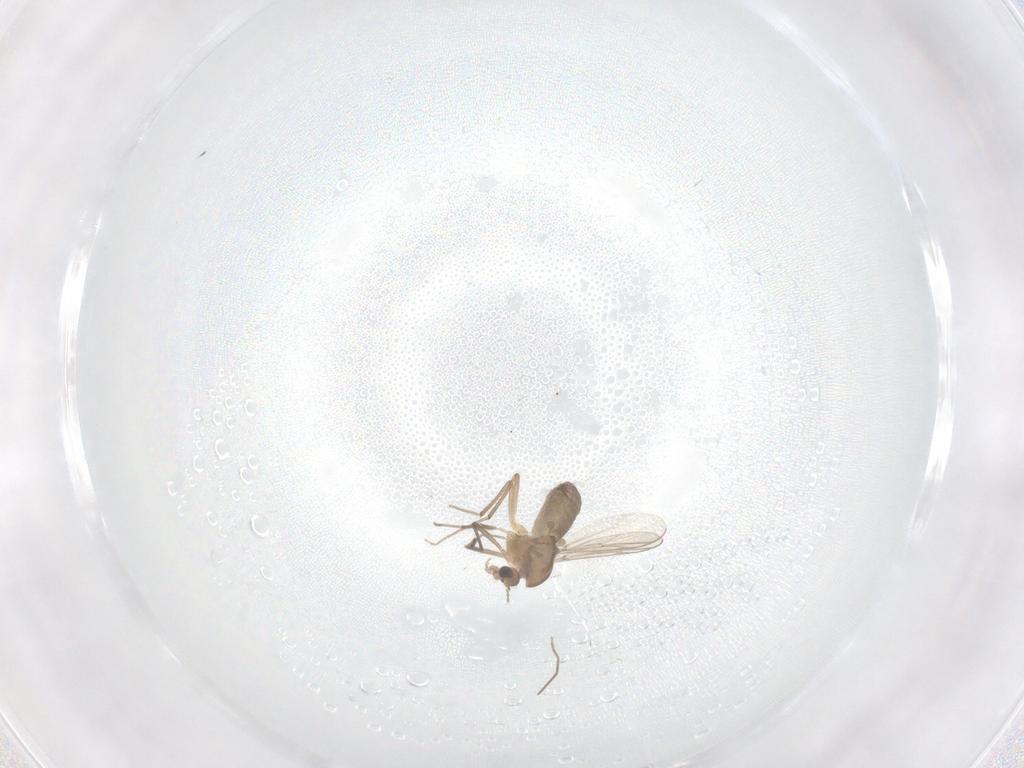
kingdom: Animalia
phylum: Arthropoda
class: Insecta
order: Diptera
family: Chironomidae
